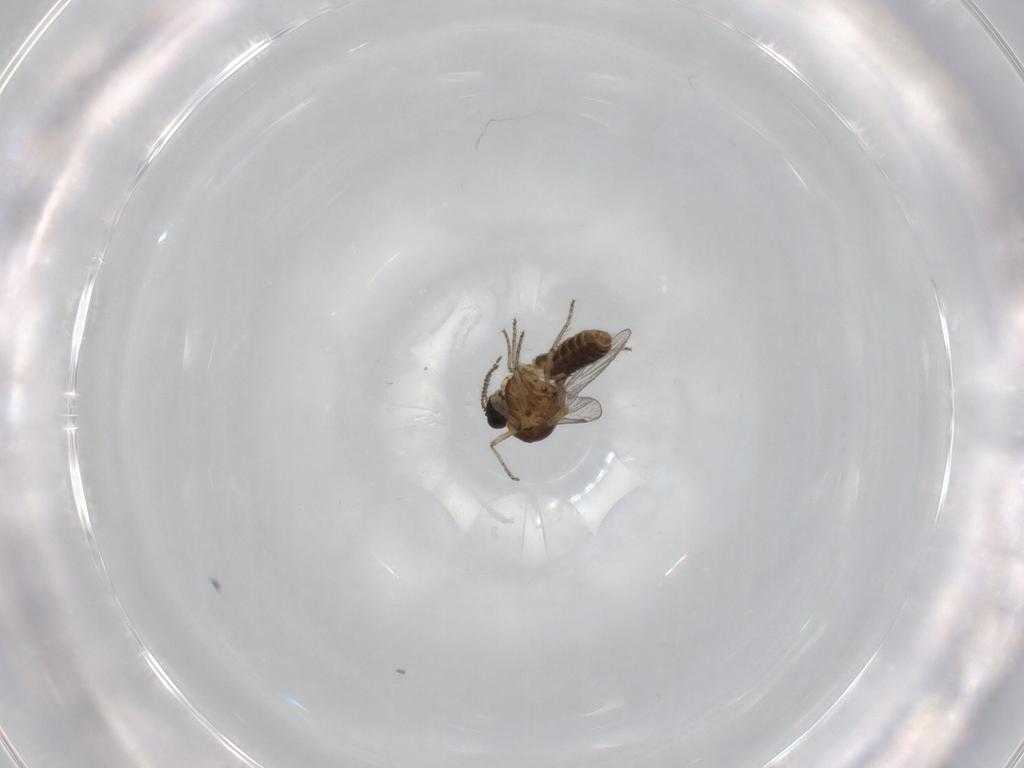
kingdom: Animalia
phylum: Arthropoda
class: Insecta
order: Diptera
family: Ceratopogonidae
